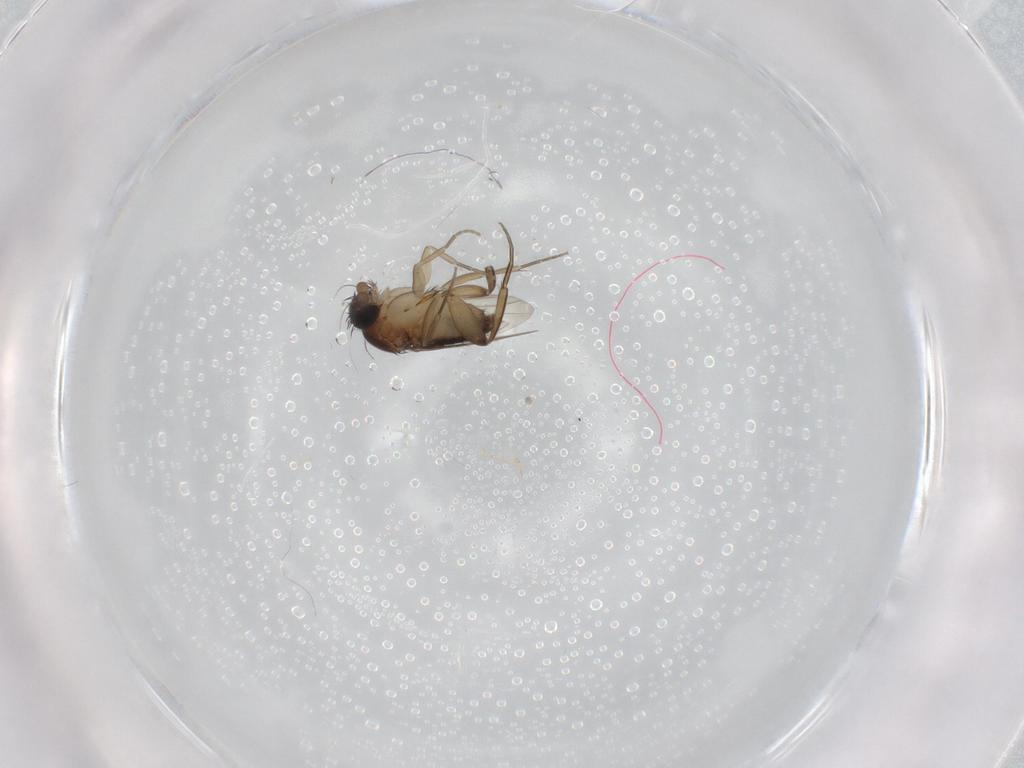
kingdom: Animalia
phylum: Arthropoda
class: Insecta
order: Diptera
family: Phoridae
